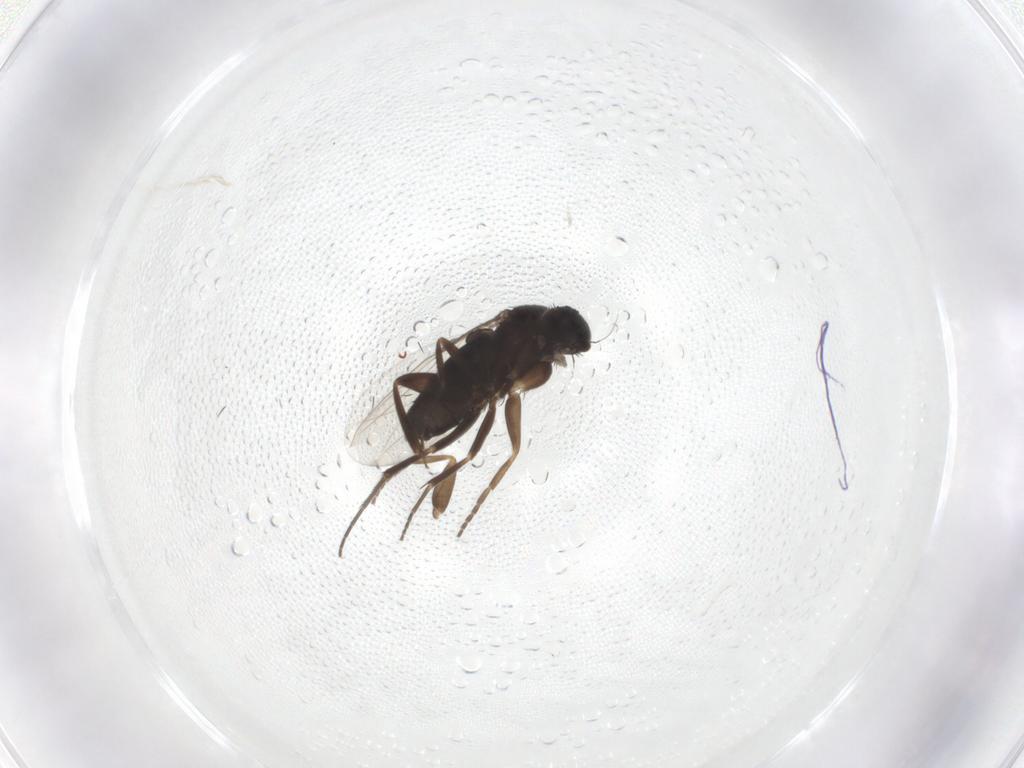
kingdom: Animalia
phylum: Arthropoda
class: Insecta
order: Diptera
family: Phoridae
